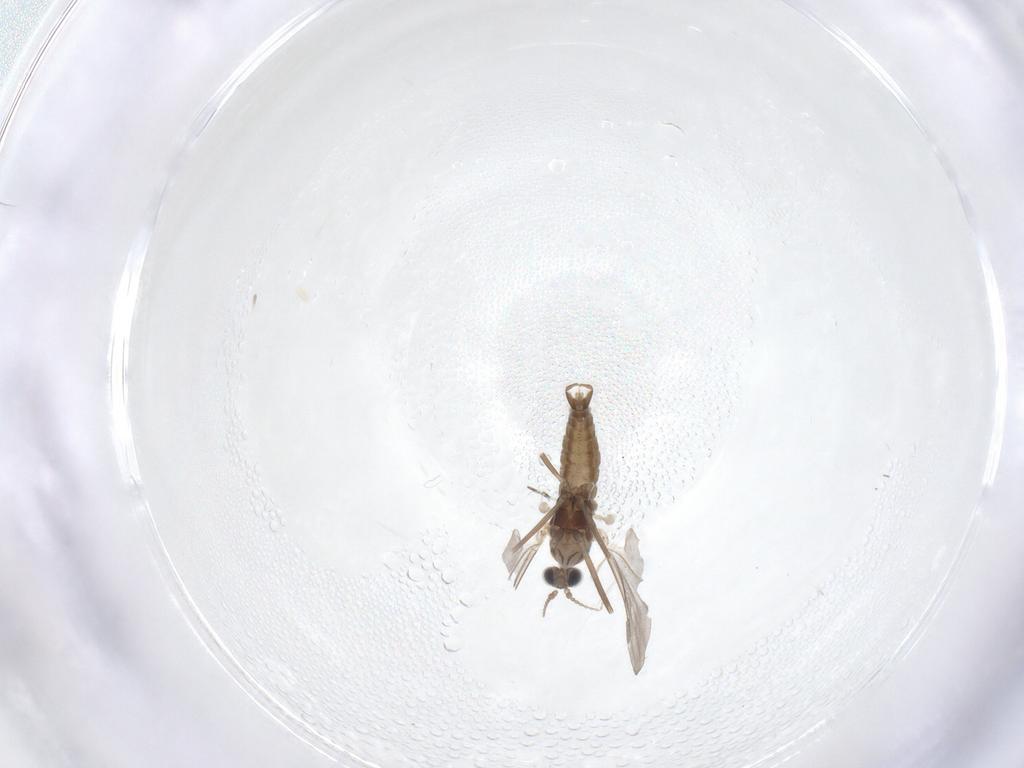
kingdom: Animalia
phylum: Arthropoda
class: Insecta
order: Diptera
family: Cecidomyiidae
